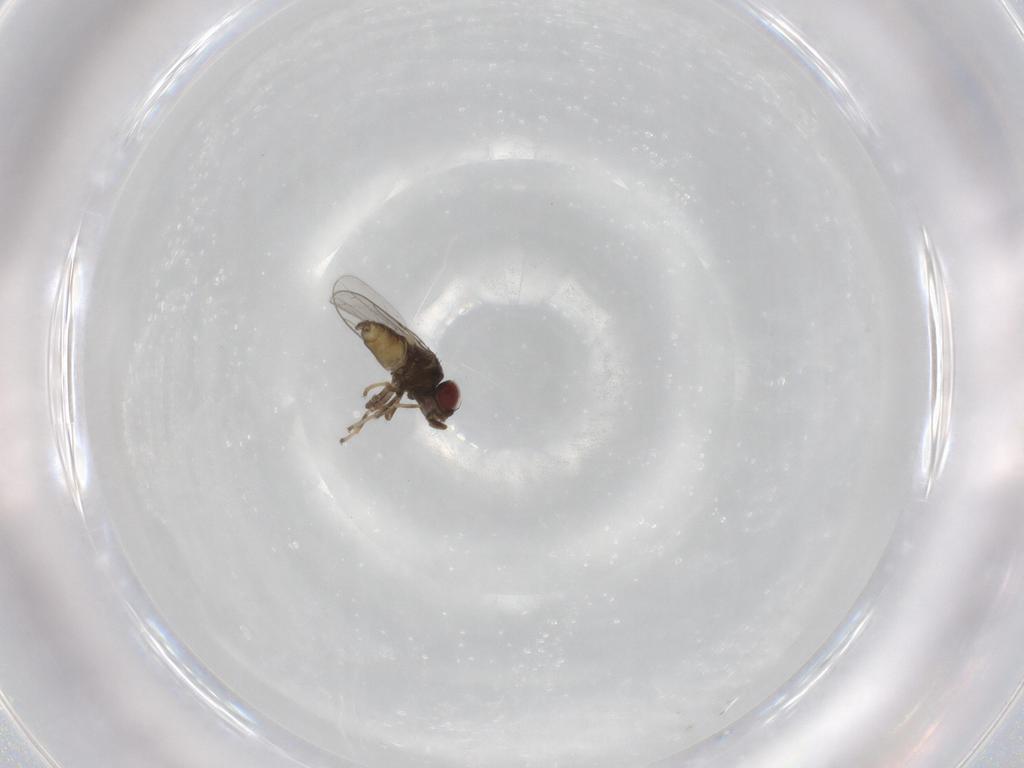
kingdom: Animalia
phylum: Arthropoda
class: Insecta
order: Diptera
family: Chloropidae
